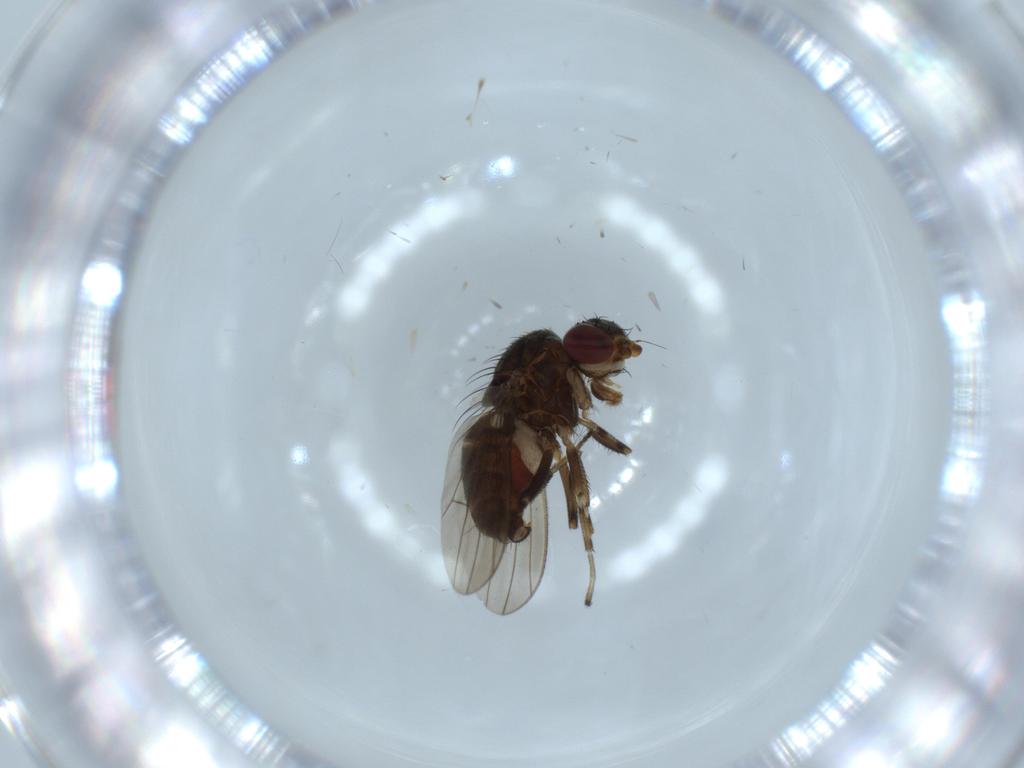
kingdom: Animalia
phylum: Arthropoda
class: Insecta
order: Diptera
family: Heleomyzidae
